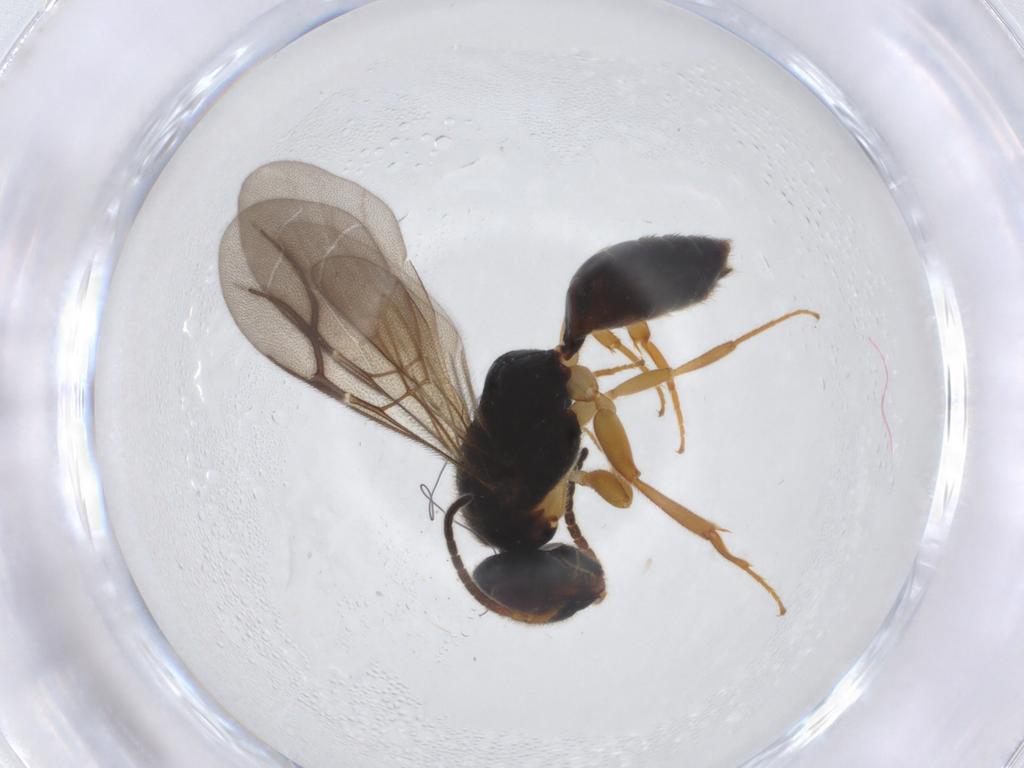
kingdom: Animalia
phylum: Arthropoda
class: Insecta
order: Hymenoptera
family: Bethylidae
